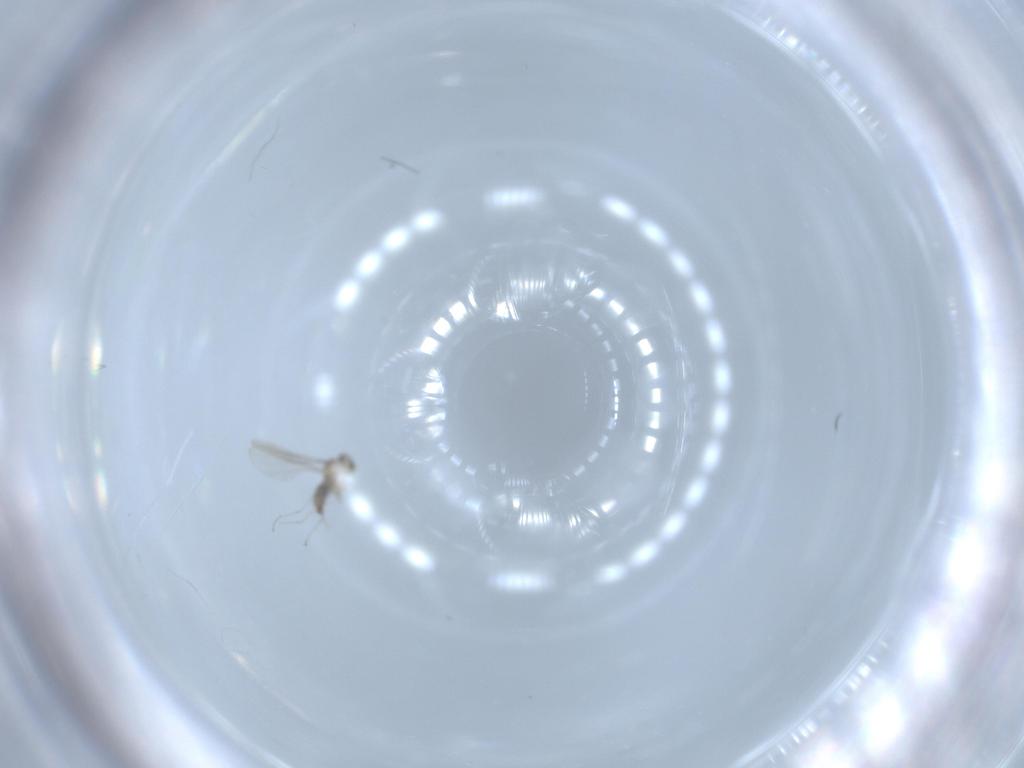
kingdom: Animalia
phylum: Arthropoda
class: Insecta
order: Diptera
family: Cecidomyiidae
